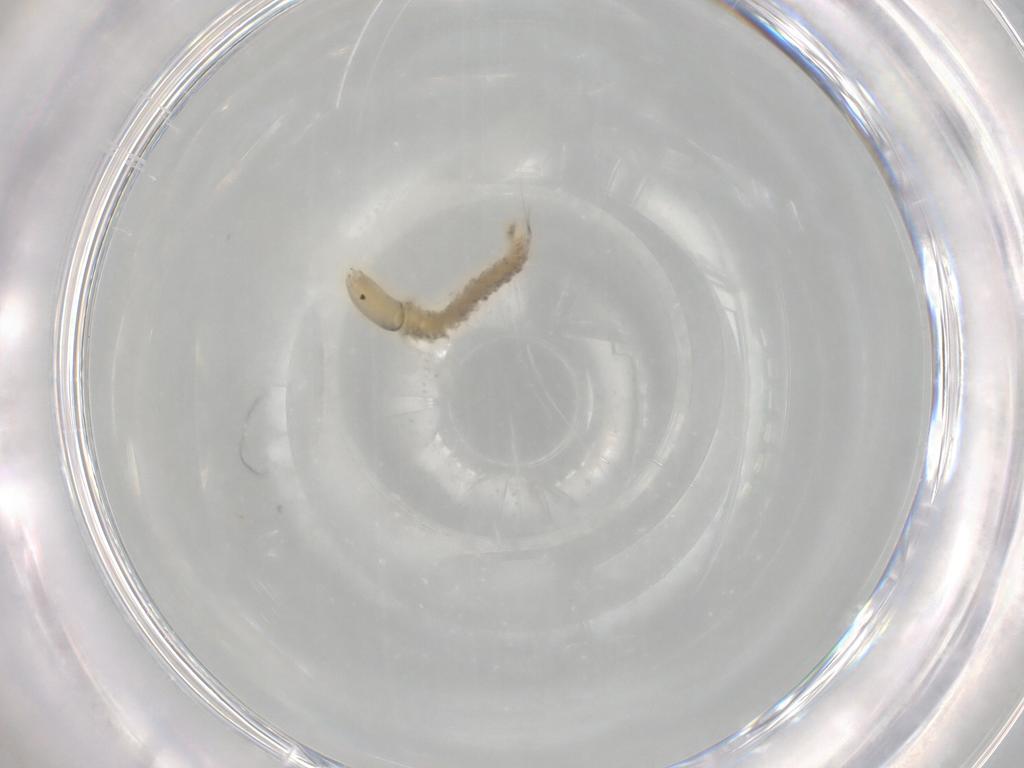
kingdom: Animalia
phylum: Arthropoda
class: Insecta
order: Diptera
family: Chironomidae
